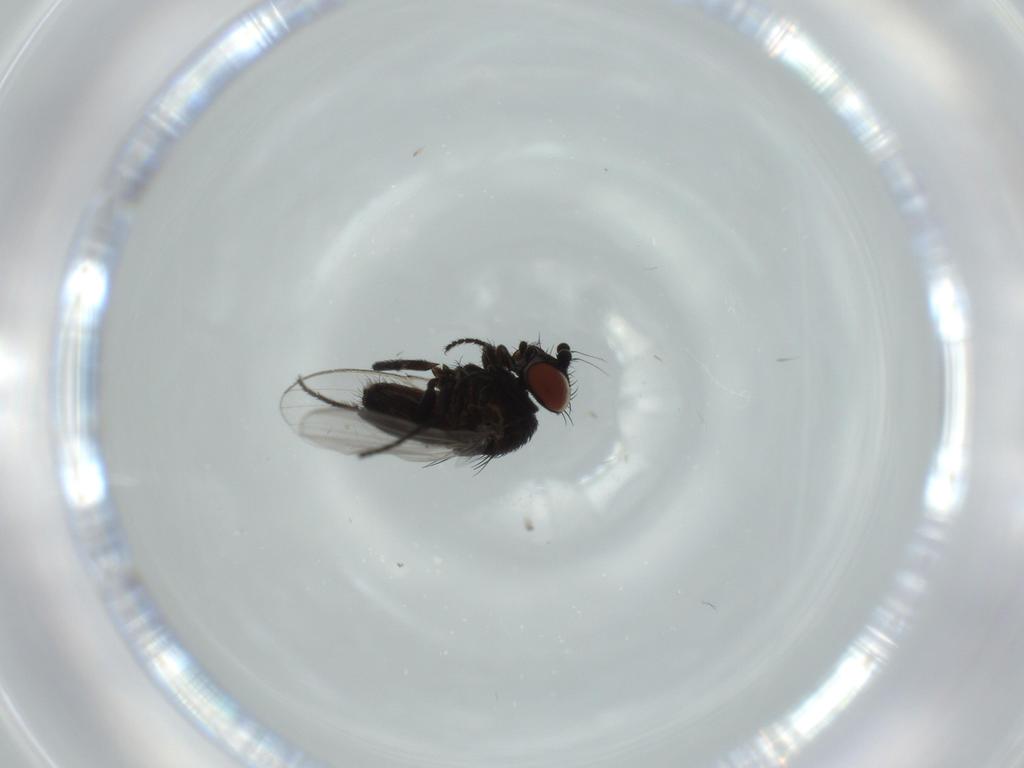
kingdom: Animalia
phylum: Arthropoda
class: Insecta
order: Diptera
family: Milichiidae
